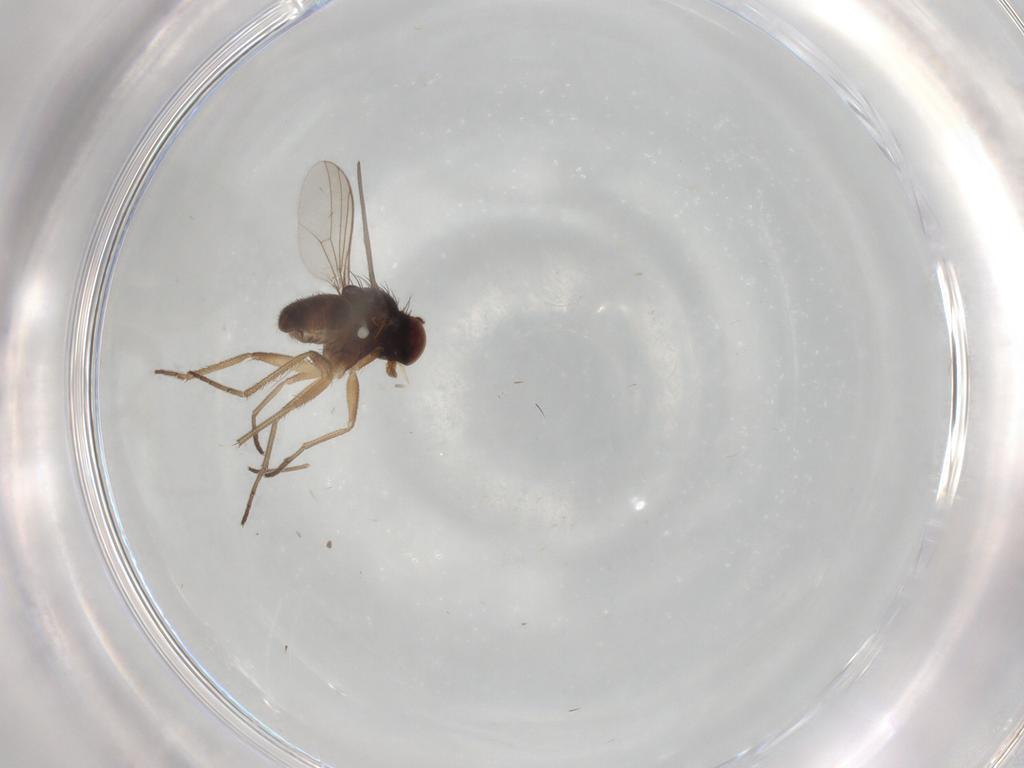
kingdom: Animalia
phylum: Arthropoda
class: Insecta
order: Diptera
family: Dolichopodidae
